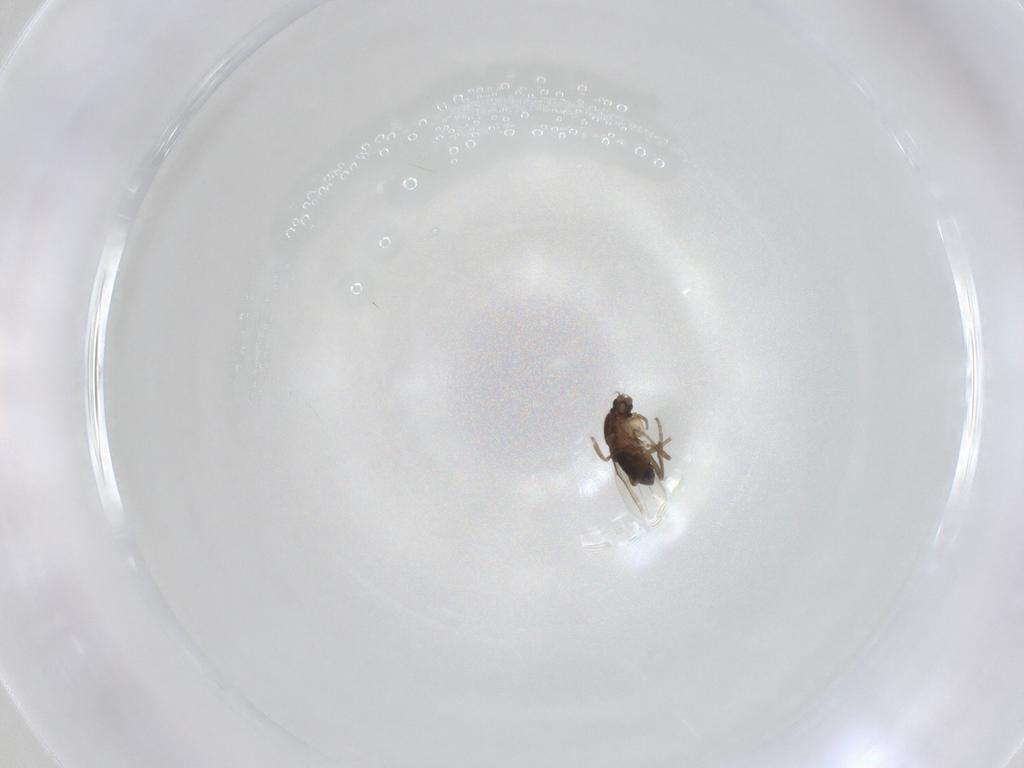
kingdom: Animalia
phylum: Arthropoda
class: Insecta
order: Diptera
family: Phoridae
